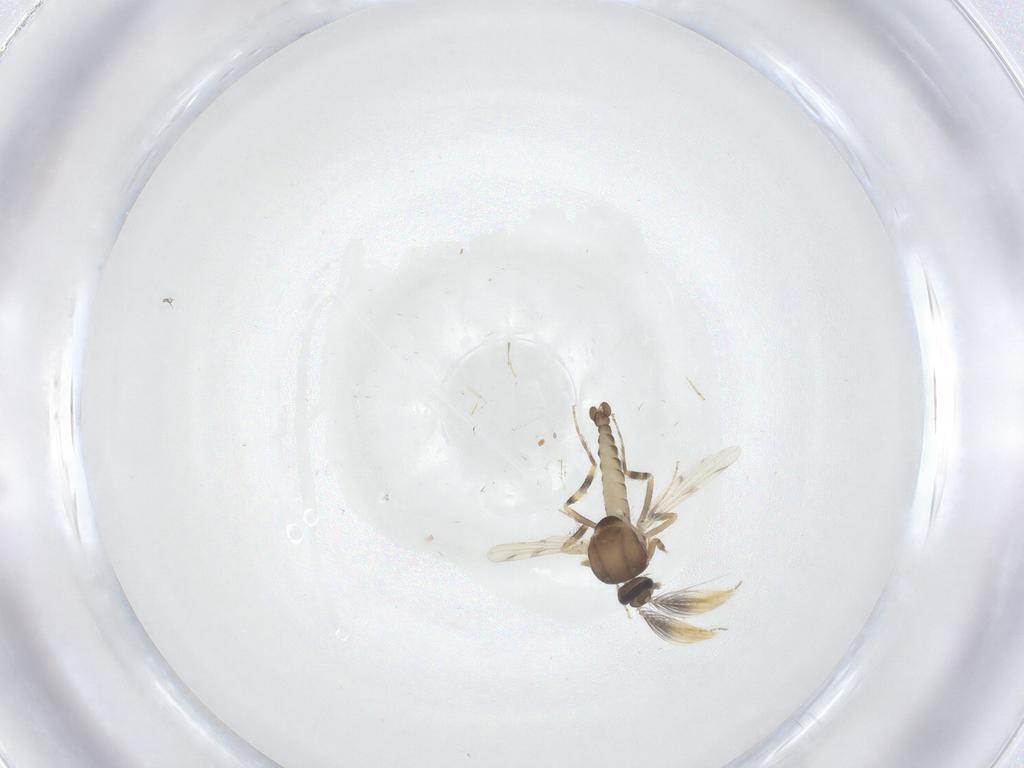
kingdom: Animalia
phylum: Arthropoda
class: Insecta
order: Diptera
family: Ceratopogonidae
